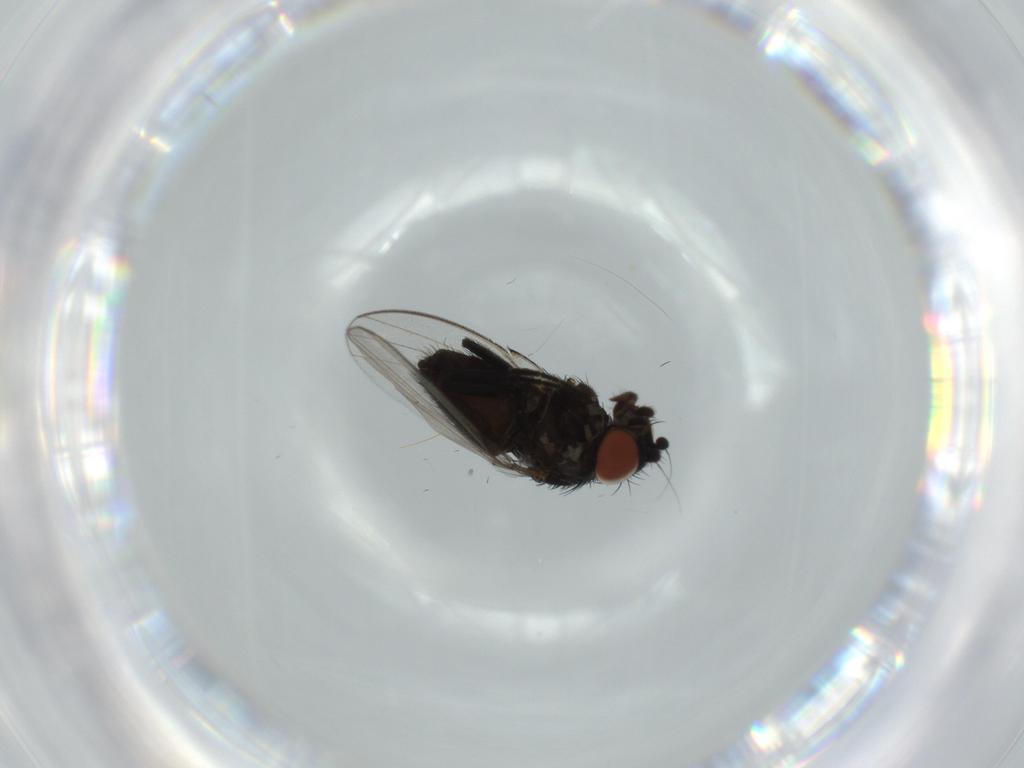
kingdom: Animalia
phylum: Arthropoda
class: Insecta
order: Diptera
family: Milichiidae
